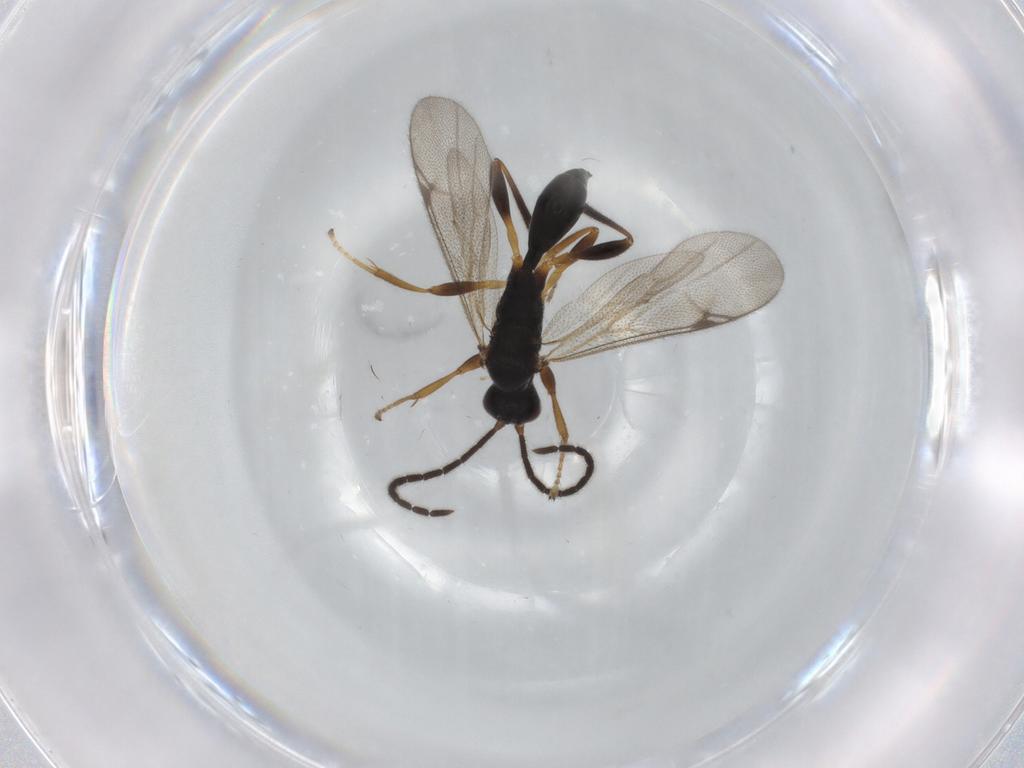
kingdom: Animalia
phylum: Arthropoda
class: Insecta
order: Hymenoptera
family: Proctotrupidae
